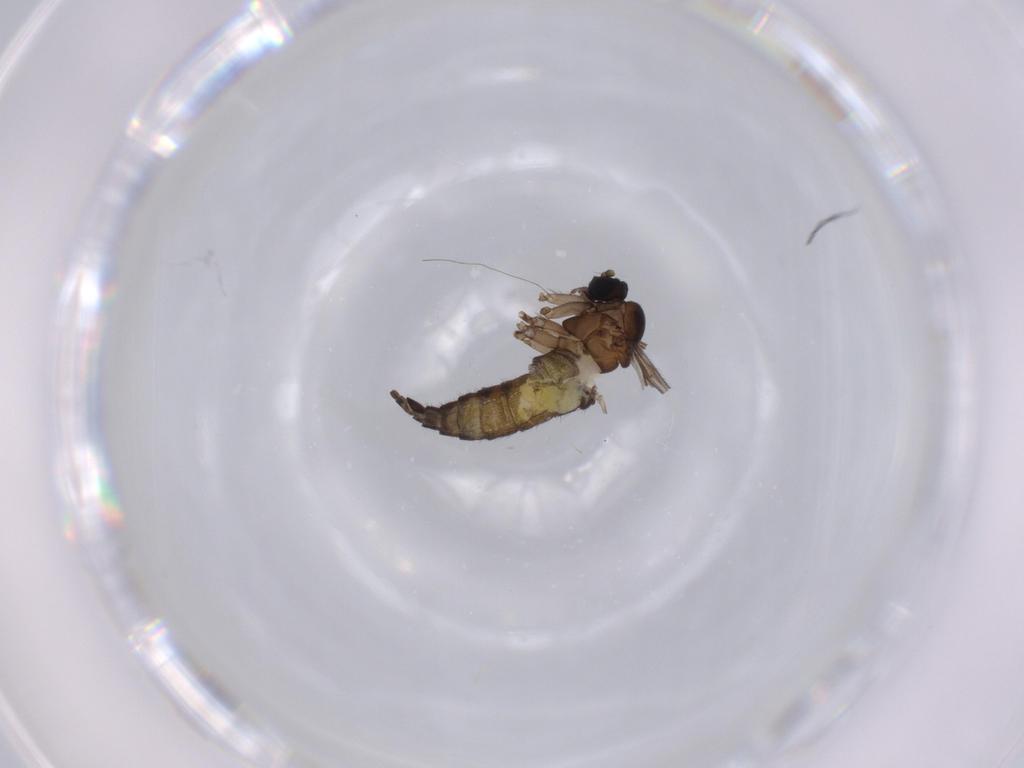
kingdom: Animalia
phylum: Arthropoda
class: Insecta
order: Diptera
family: Sciaridae
